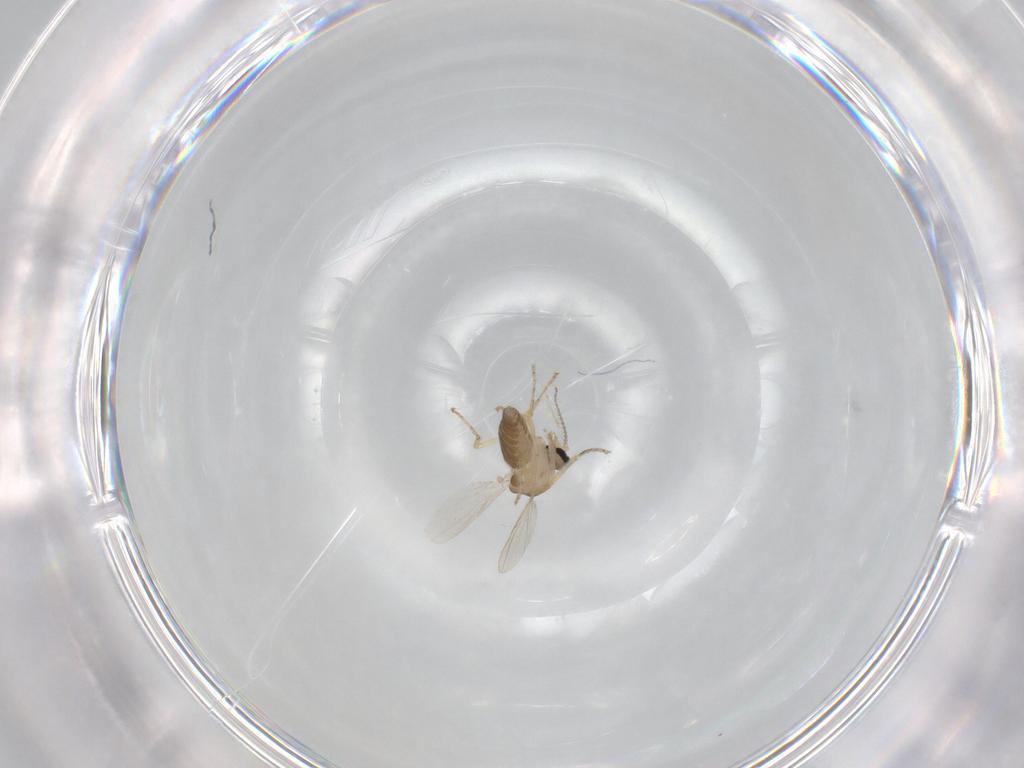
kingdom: Animalia
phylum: Arthropoda
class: Insecta
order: Diptera
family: Ceratopogonidae
